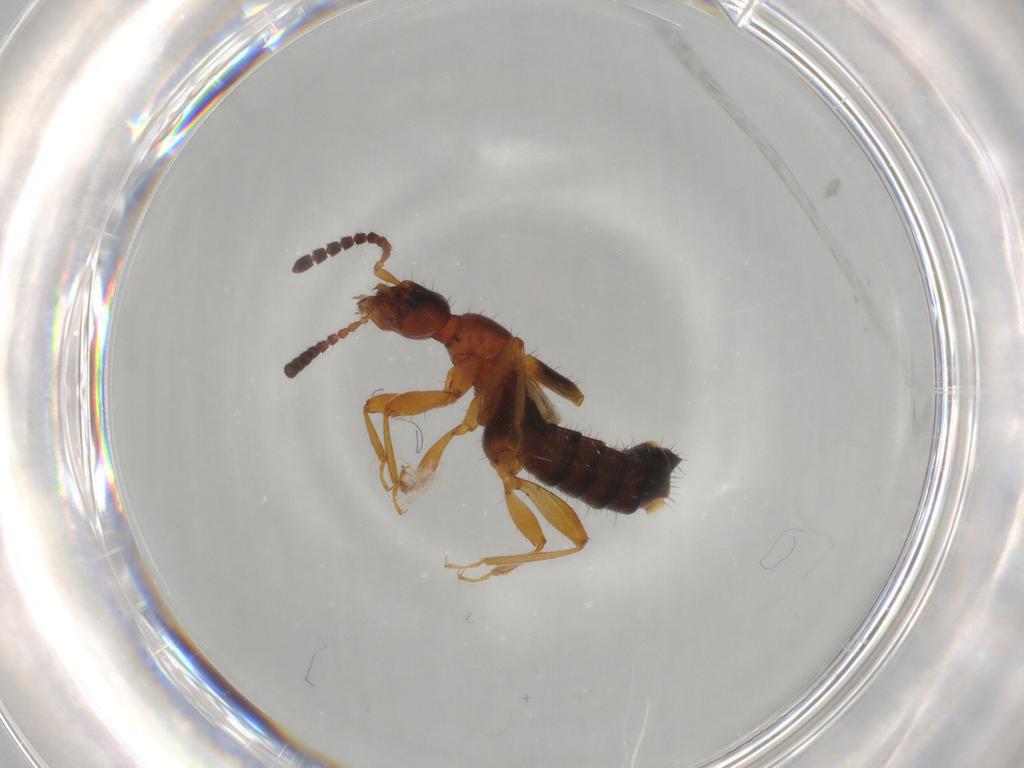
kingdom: Animalia
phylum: Arthropoda
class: Insecta
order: Coleoptera
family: Staphylinidae
